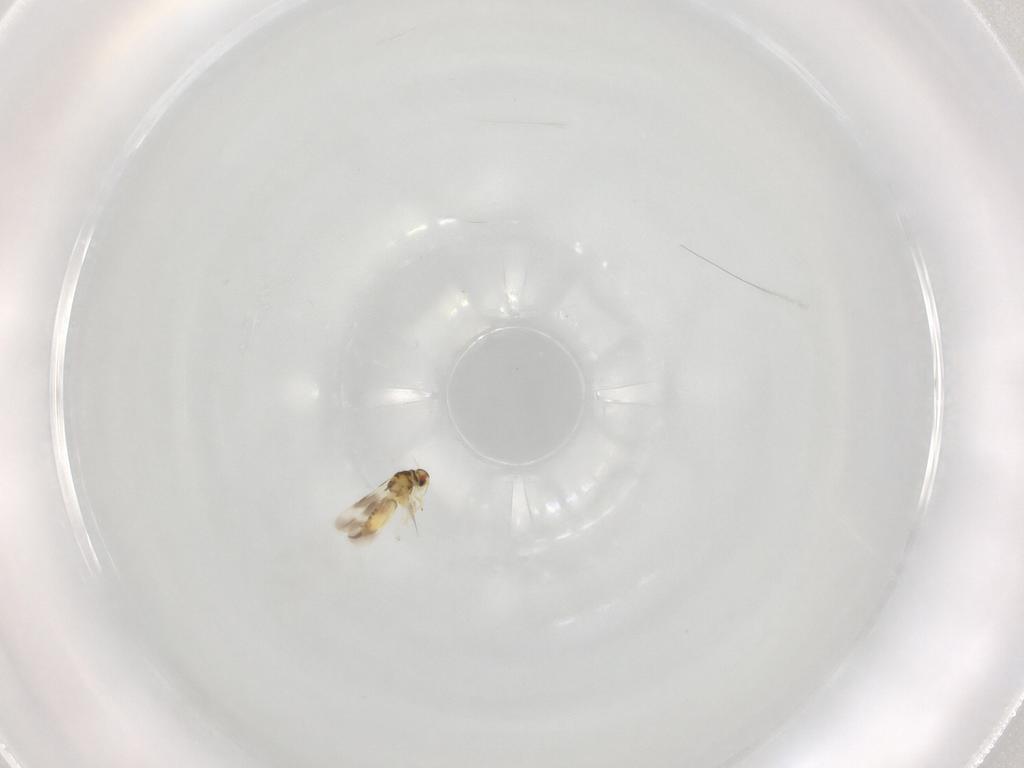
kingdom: Animalia
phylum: Arthropoda
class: Insecta
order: Hemiptera
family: Aleyrodidae
